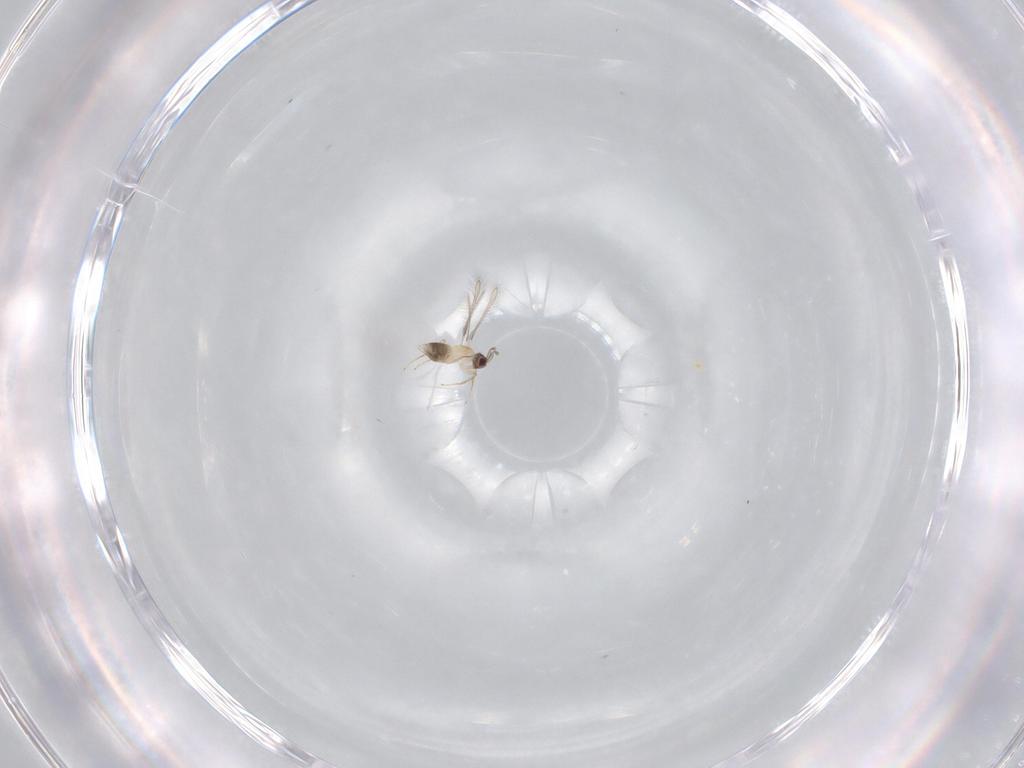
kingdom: Animalia
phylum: Arthropoda
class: Insecta
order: Hymenoptera
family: Mymaridae
